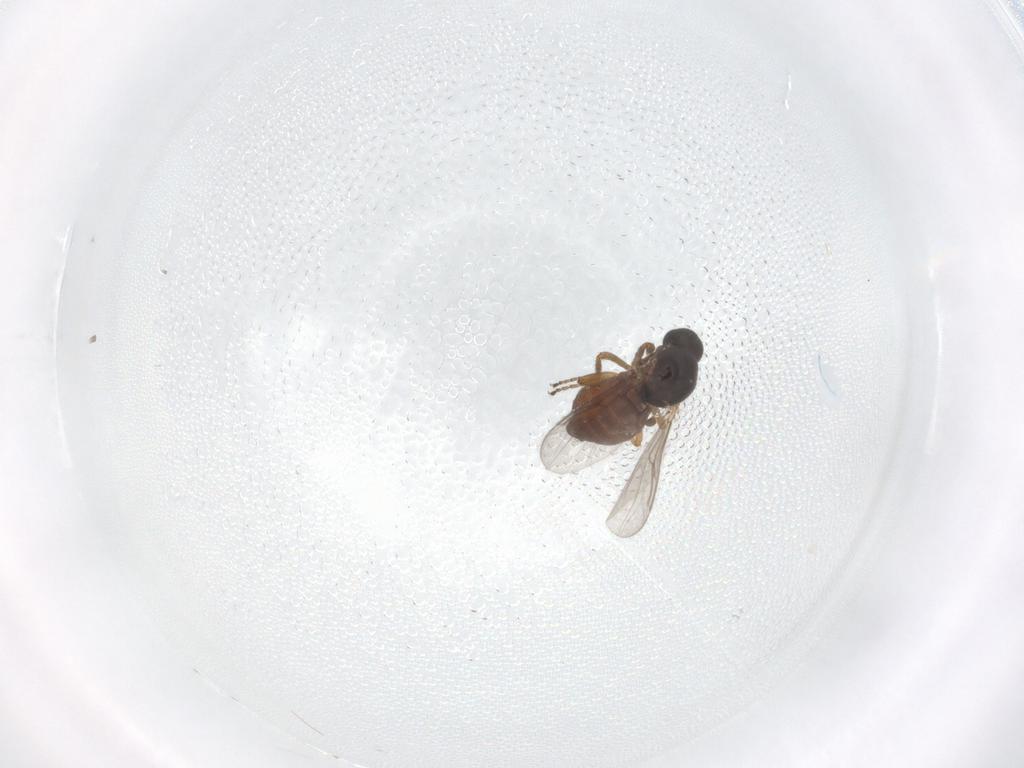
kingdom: Animalia
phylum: Arthropoda
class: Insecta
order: Diptera
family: Ceratopogonidae
